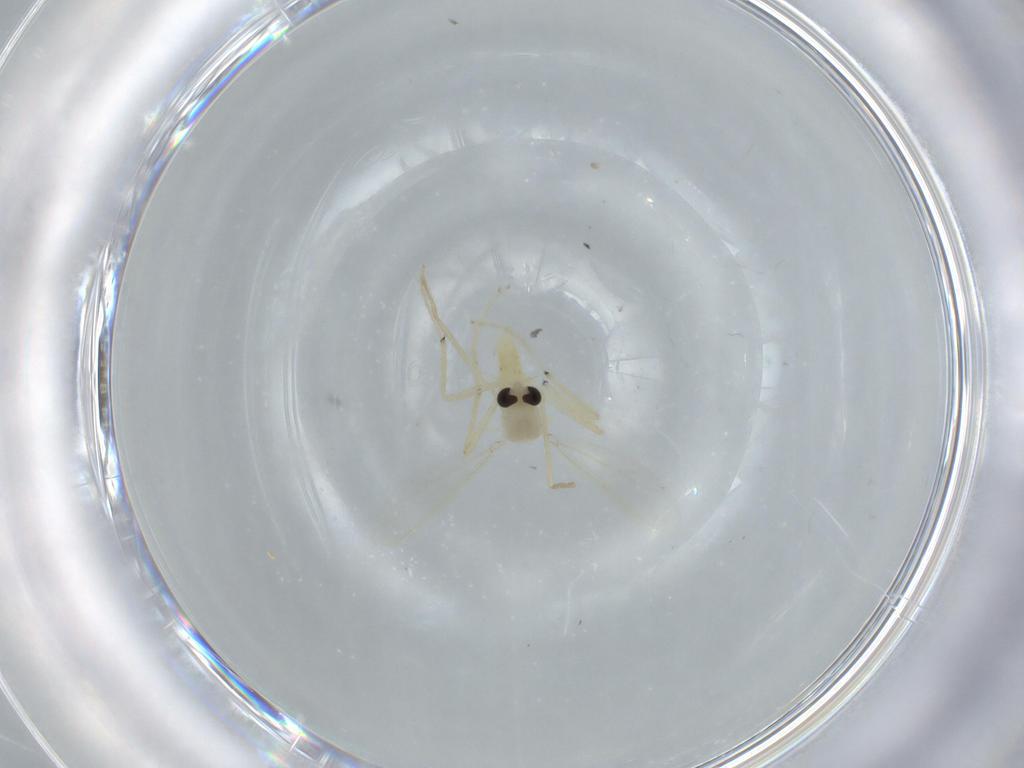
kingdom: Animalia
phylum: Arthropoda
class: Insecta
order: Diptera
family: Chironomidae
